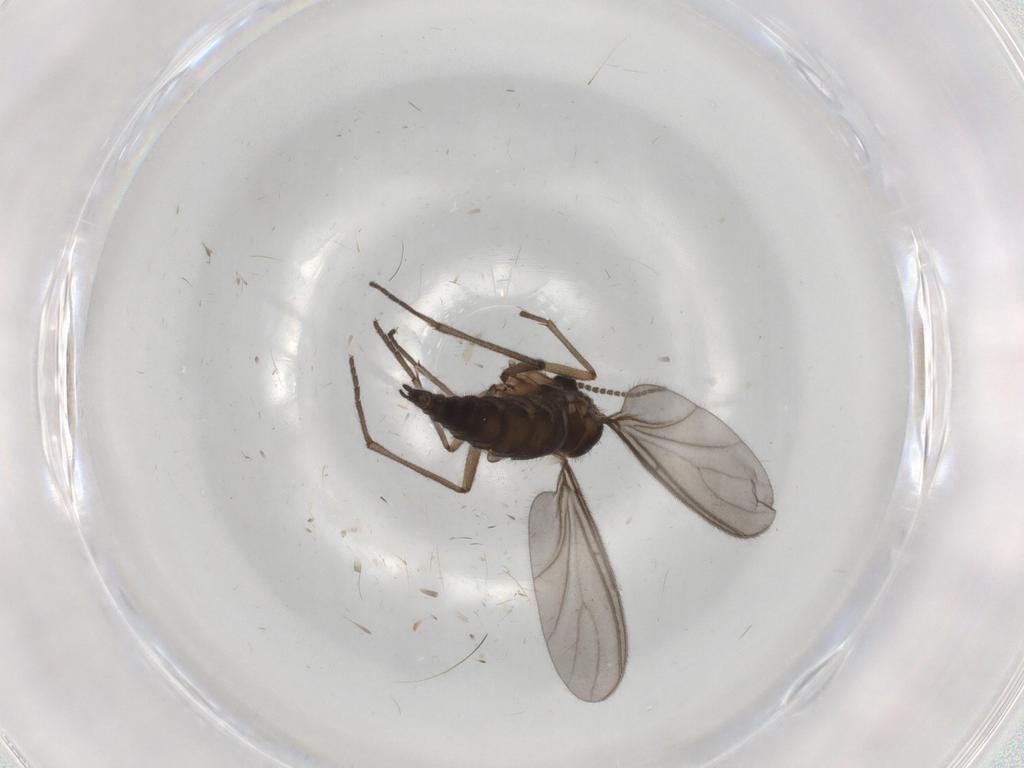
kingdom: Animalia
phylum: Arthropoda
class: Insecta
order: Diptera
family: Sciaridae
